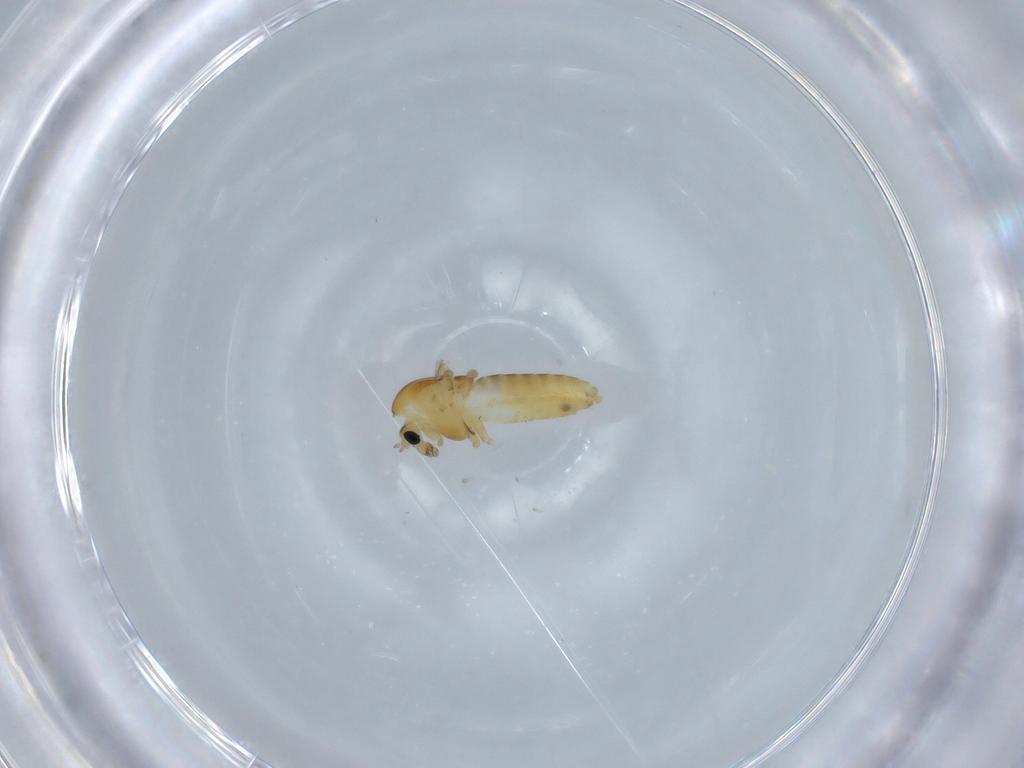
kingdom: Animalia
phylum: Arthropoda
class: Insecta
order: Diptera
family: Chironomidae
